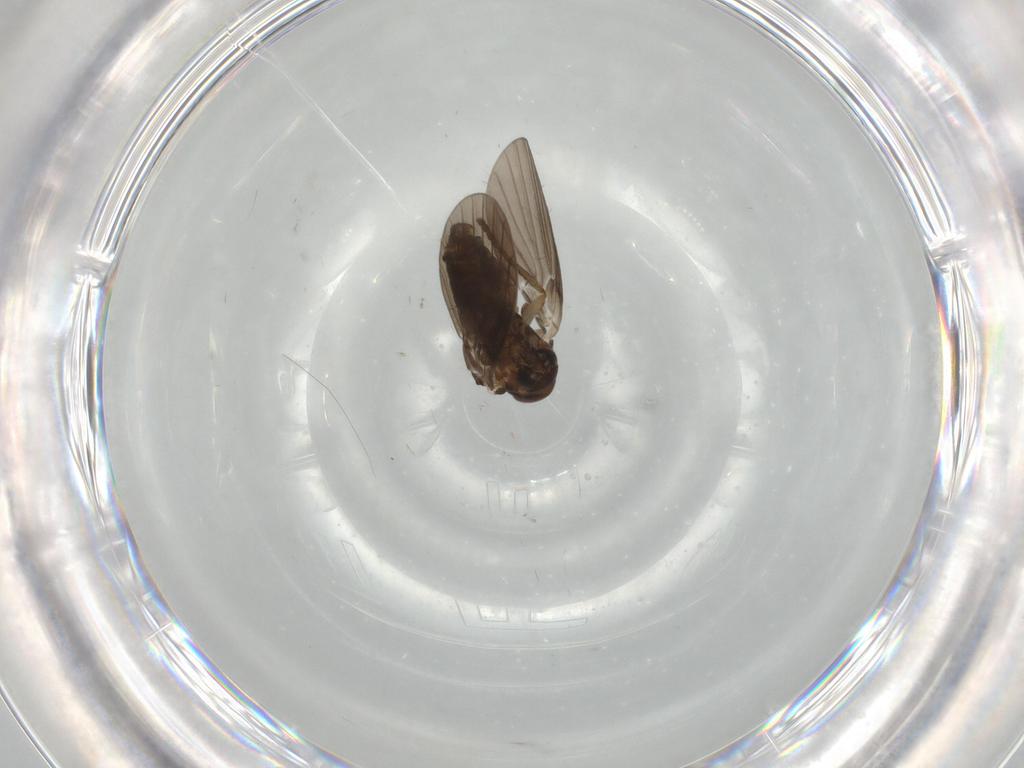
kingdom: Animalia
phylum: Arthropoda
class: Insecta
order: Diptera
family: Psychodidae
